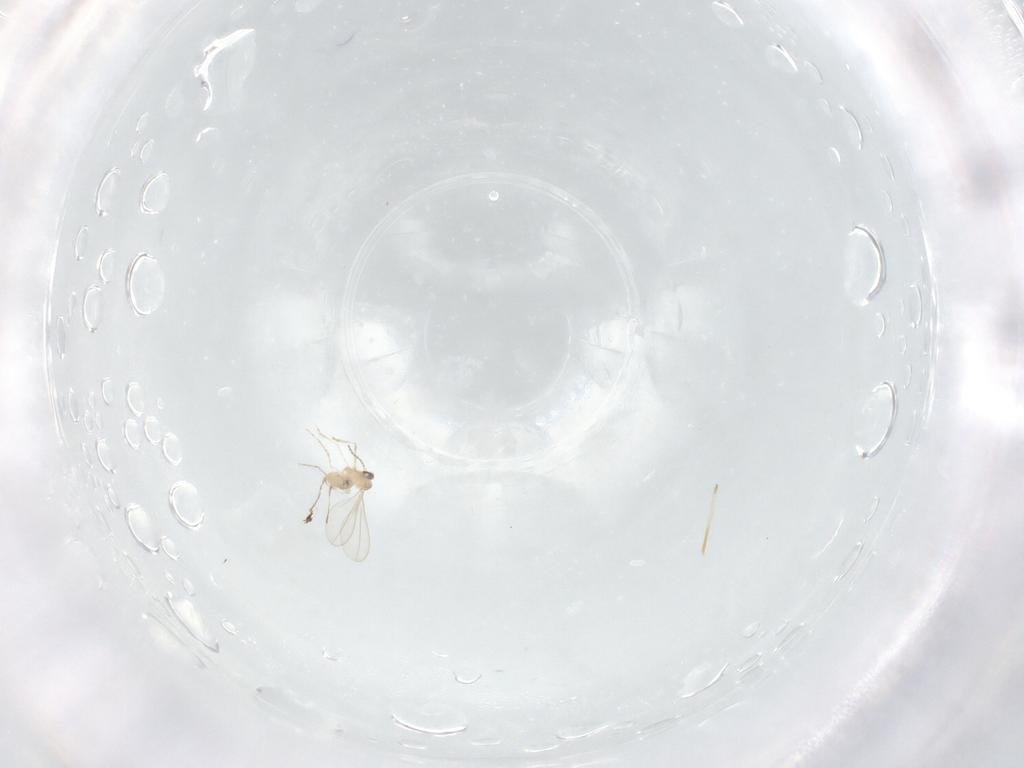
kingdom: Animalia
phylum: Arthropoda
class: Insecta
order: Diptera
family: Cecidomyiidae
